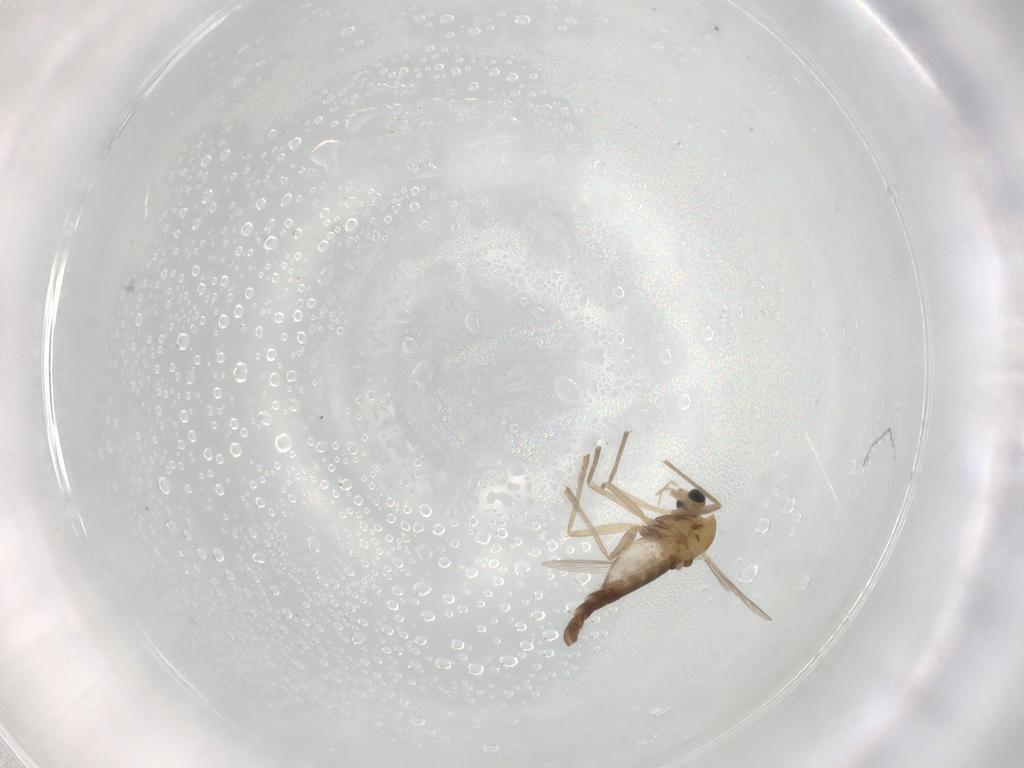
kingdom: Animalia
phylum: Arthropoda
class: Insecta
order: Diptera
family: Chironomidae
